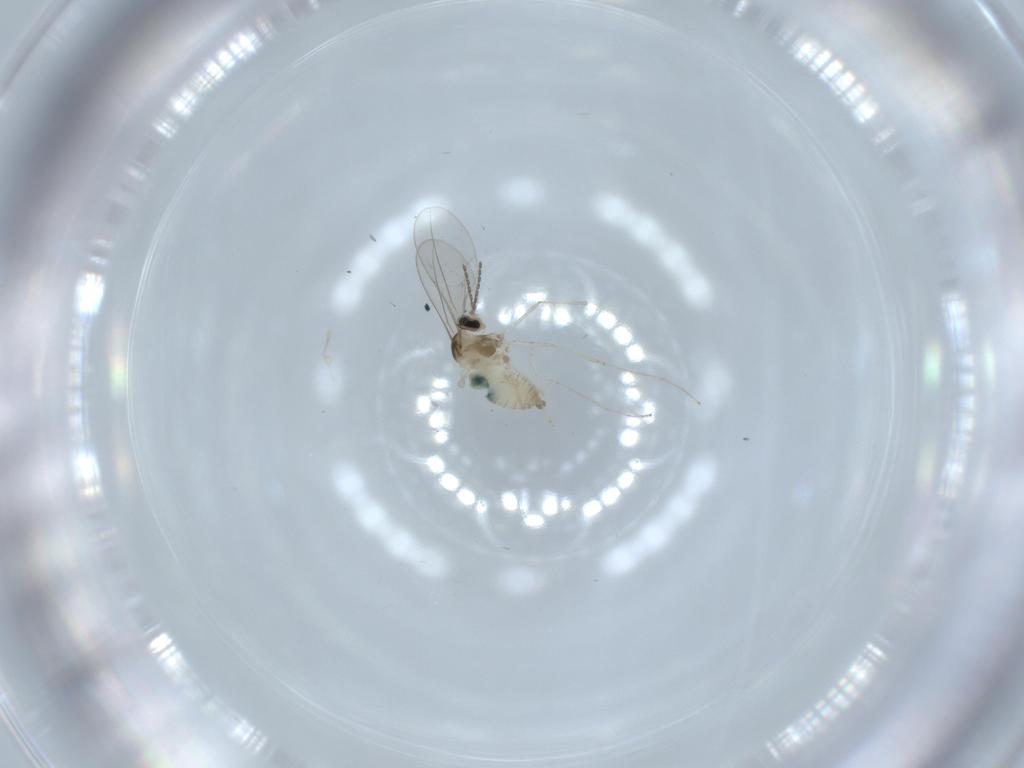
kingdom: Animalia
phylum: Arthropoda
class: Insecta
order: Diptera
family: Cecidomyiidae
